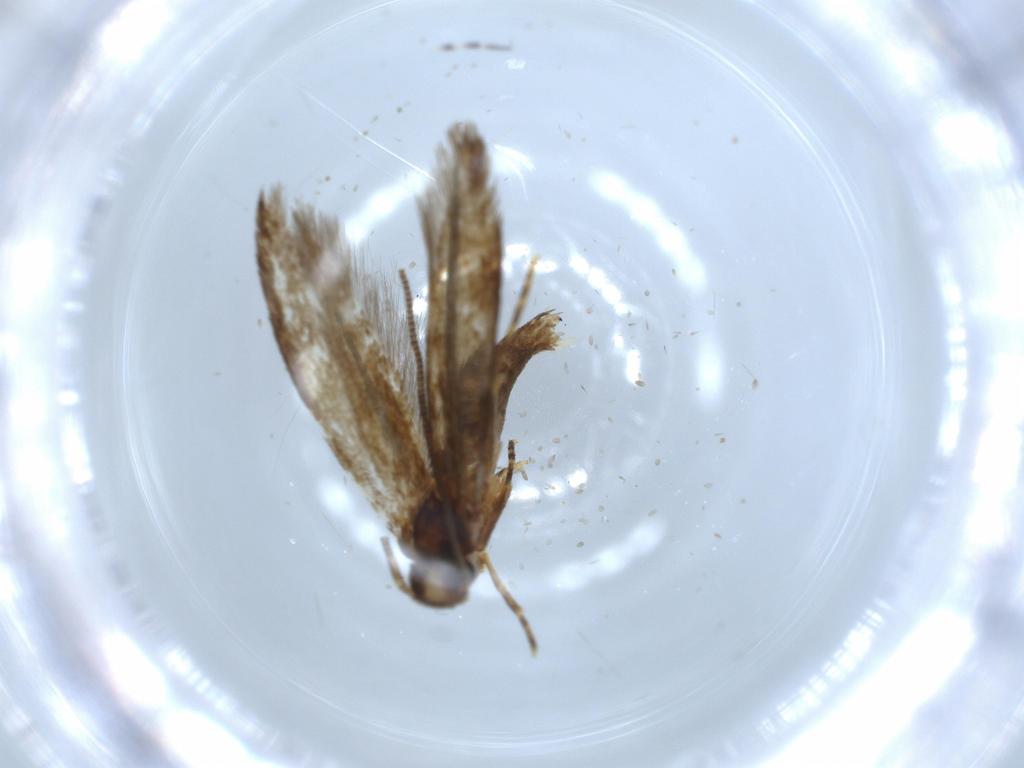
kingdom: Animalia
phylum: Arthropoda
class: Insecta
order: Lepidoptera
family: Tineidae
